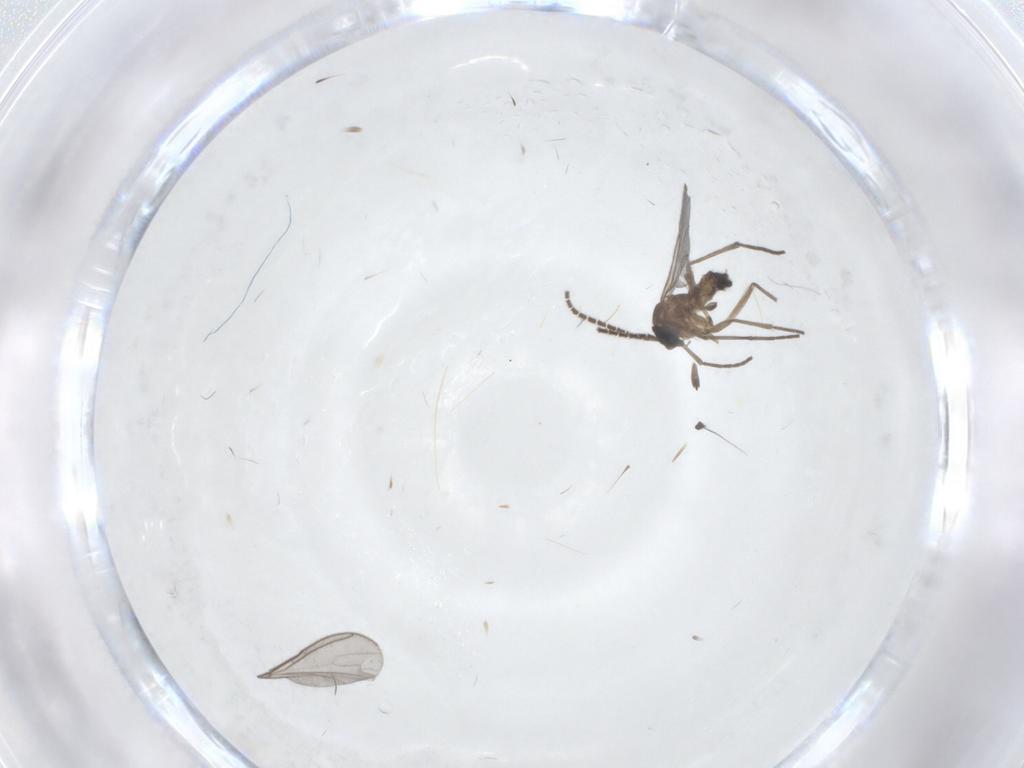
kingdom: Animalia
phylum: Arthropoda
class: Insecta
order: Diptera
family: Sciaridae
